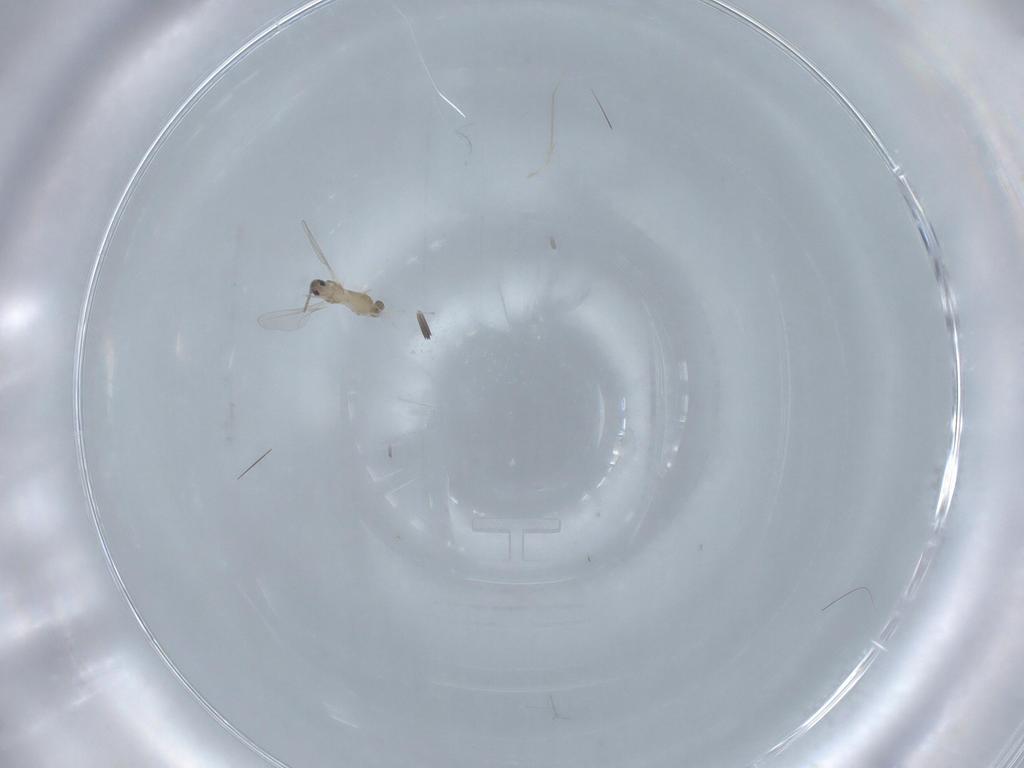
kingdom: Animalia
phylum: Arthropoda
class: Insecta
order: Diptera
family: Cecidomyiidae
